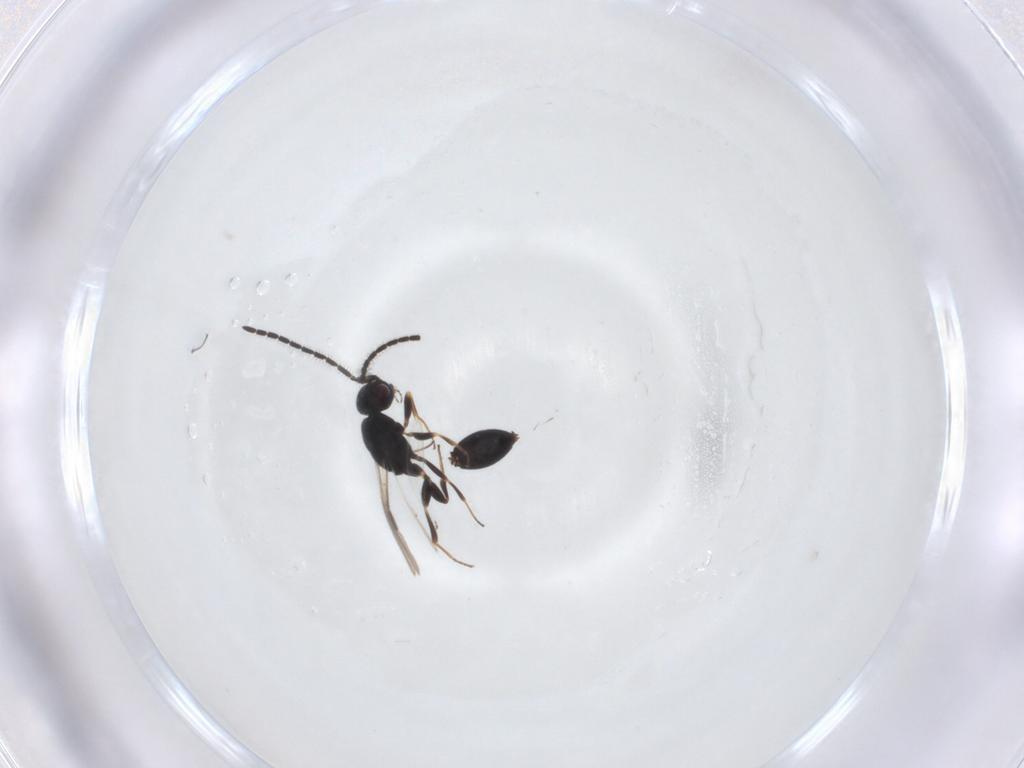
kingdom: Animalia
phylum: Arthropoda
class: Insecta
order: Hymenoptera
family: Megaspilidae
